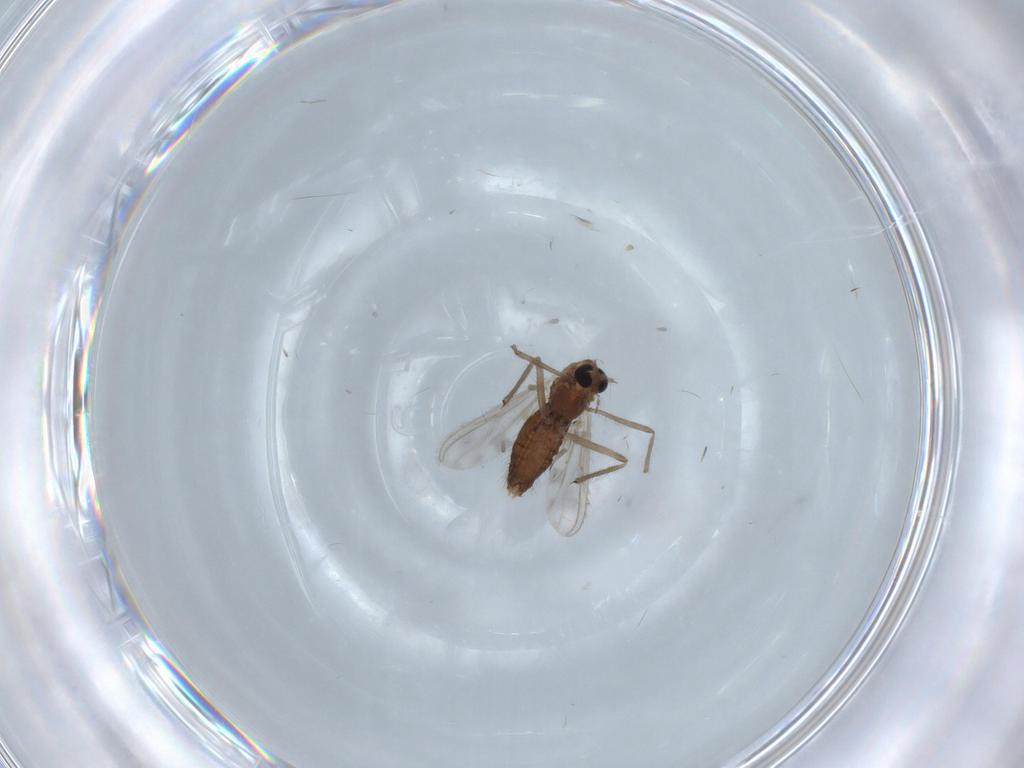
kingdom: Animalia
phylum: Arthropoda
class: Insecta
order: Diptera
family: Chironomidae
